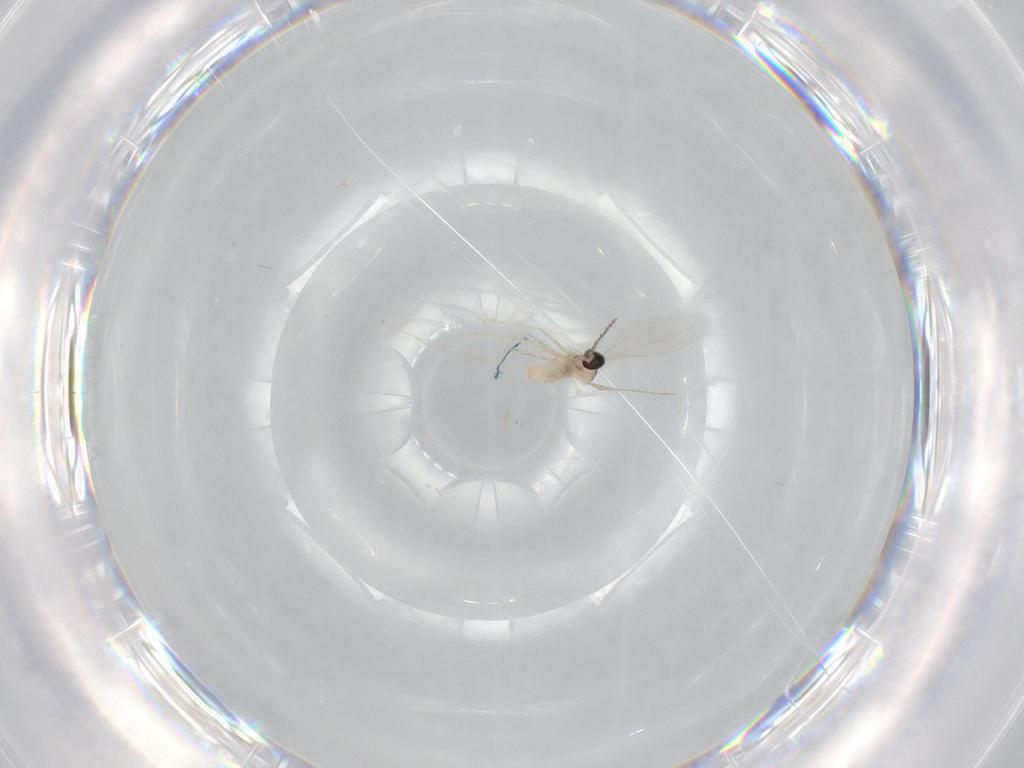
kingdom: Animalia
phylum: Arthropoda
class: Insecta
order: Diptera
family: Cecidomyiidae
